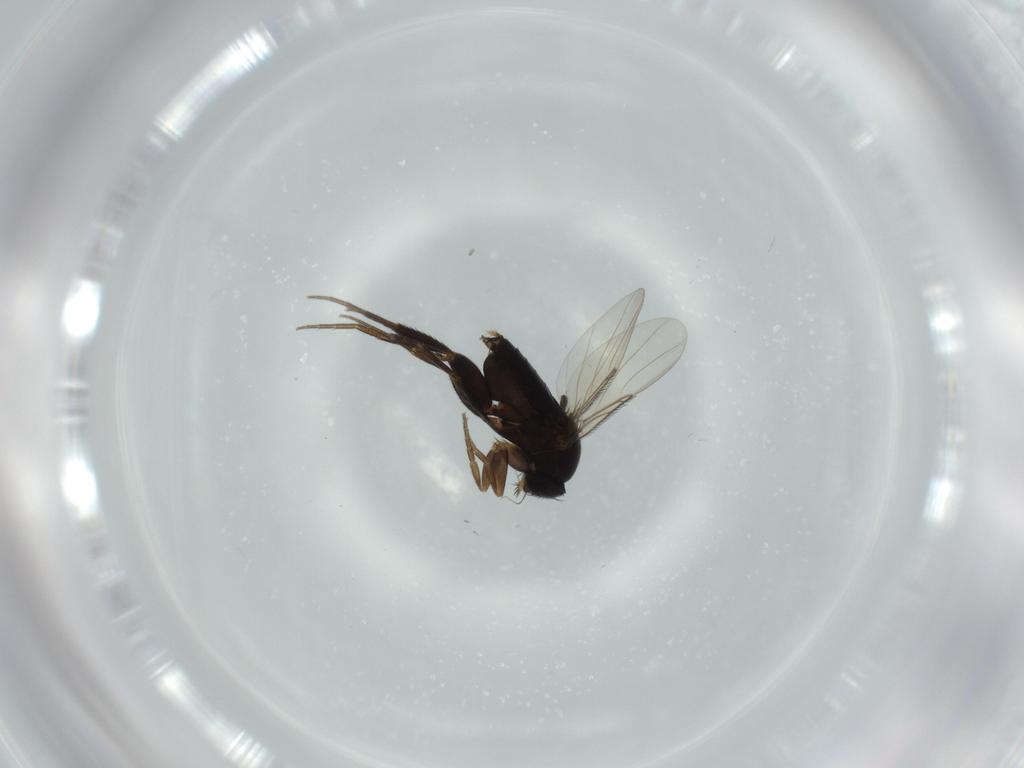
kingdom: Animalia
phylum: Arthropoda
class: Insecta
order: Diptera
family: Phoridae
